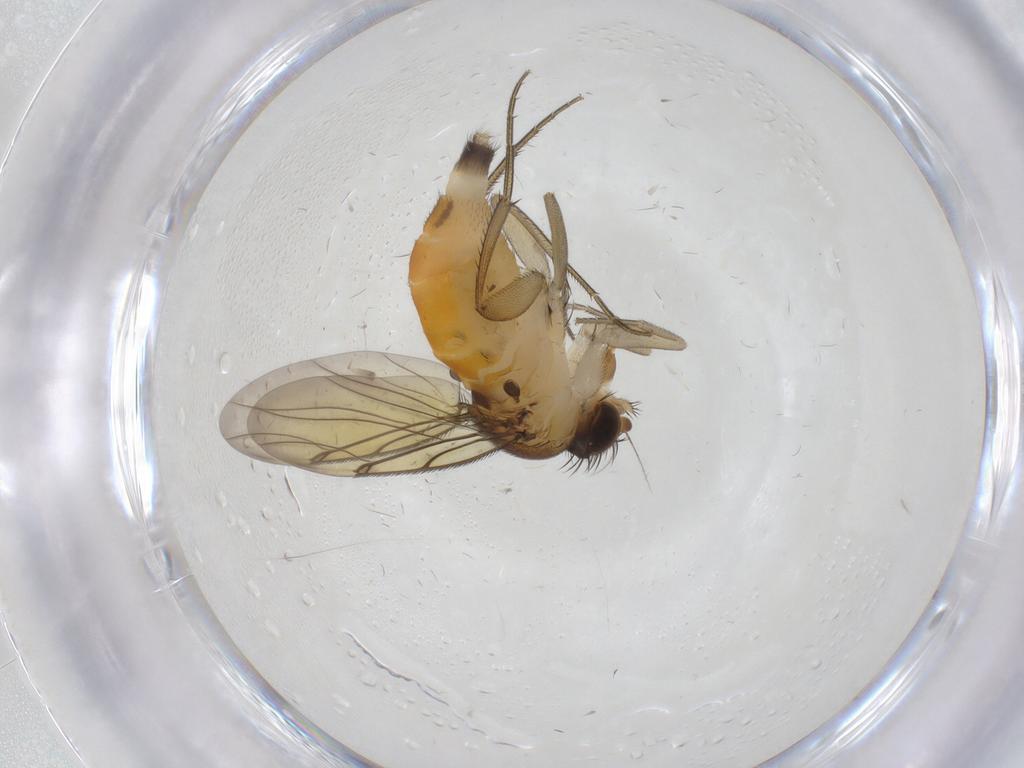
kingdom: Animalia
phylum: Arthropoda
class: Insecta
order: Diptera
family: Phoridae
